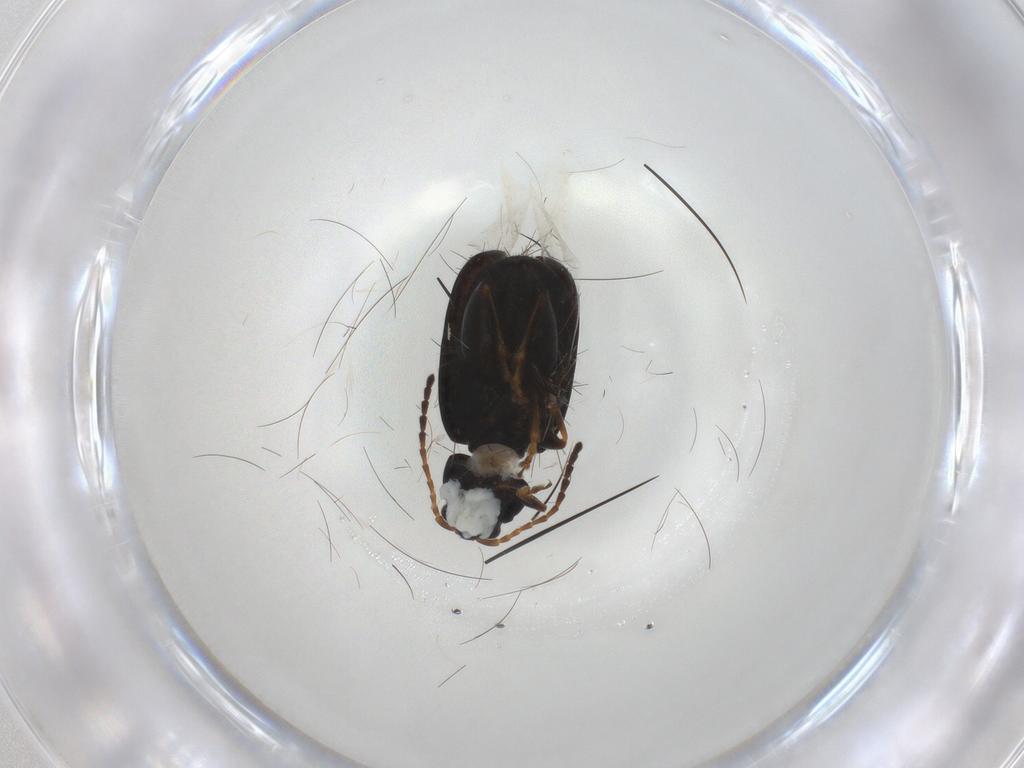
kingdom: Animalia
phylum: Arthropoda
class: Insecta
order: Coleoptera
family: Chrysomelidae
